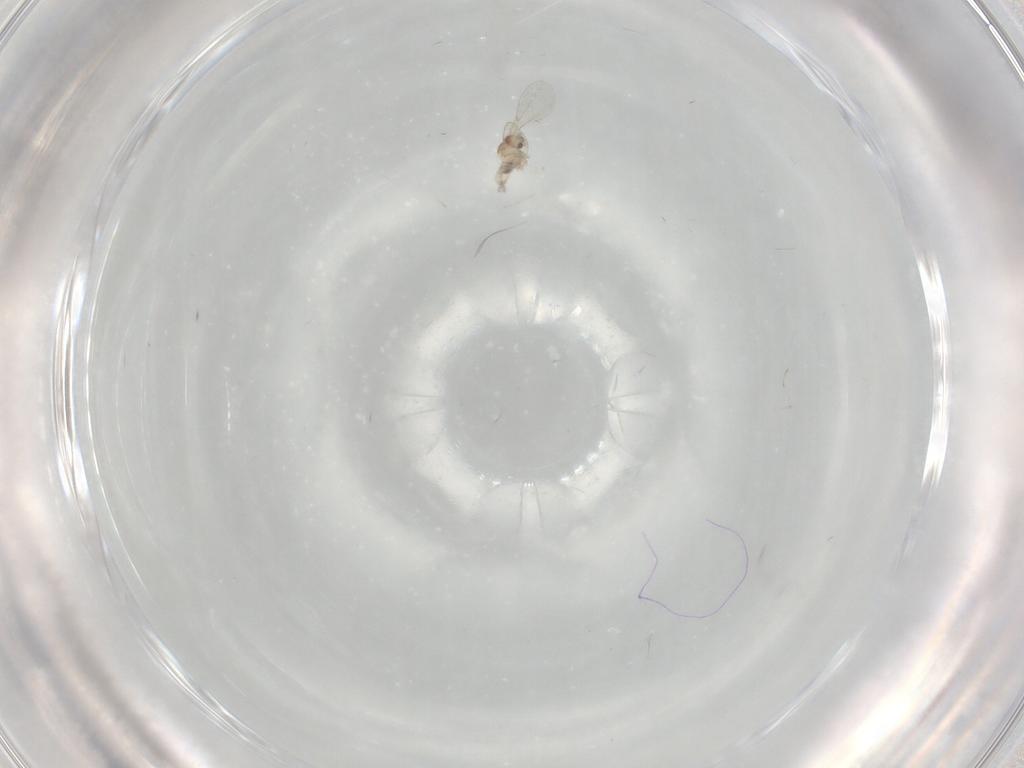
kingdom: Animalia
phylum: Arthropoda
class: Insecta
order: Diptera
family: Cecidomyiidae
